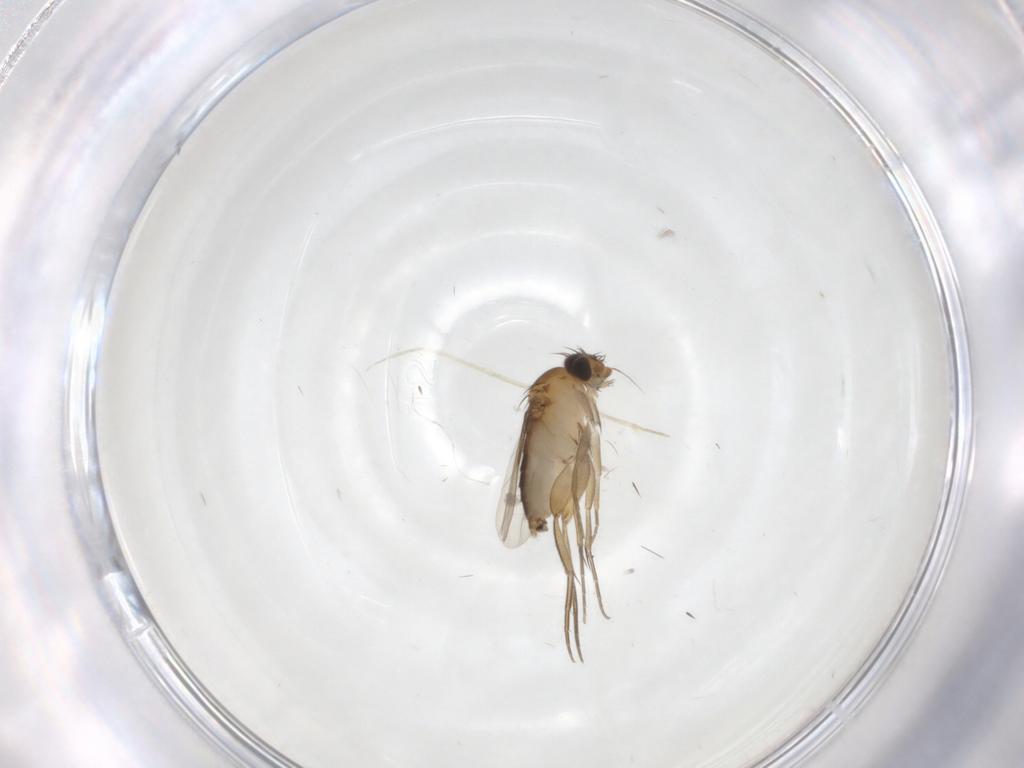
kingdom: Animalia
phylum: Arthropoda
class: Insecta
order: Diptera
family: Phoridae
